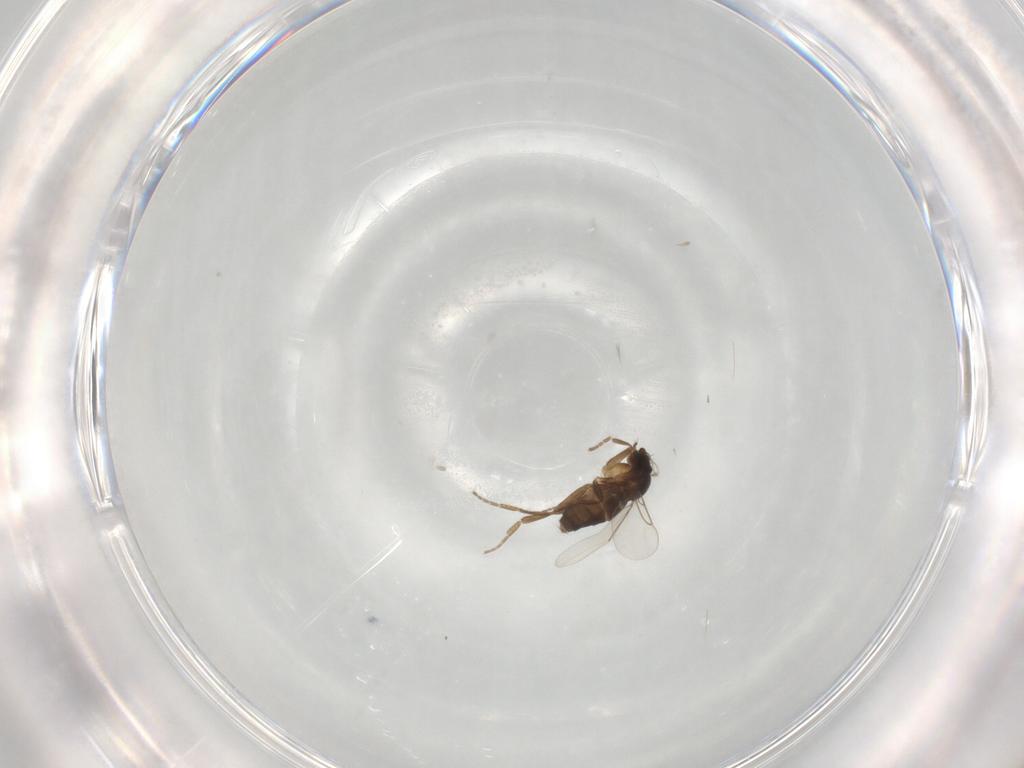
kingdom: Animalia
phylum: Arthropoda
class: Insecta
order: Diptera
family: Phoridae
